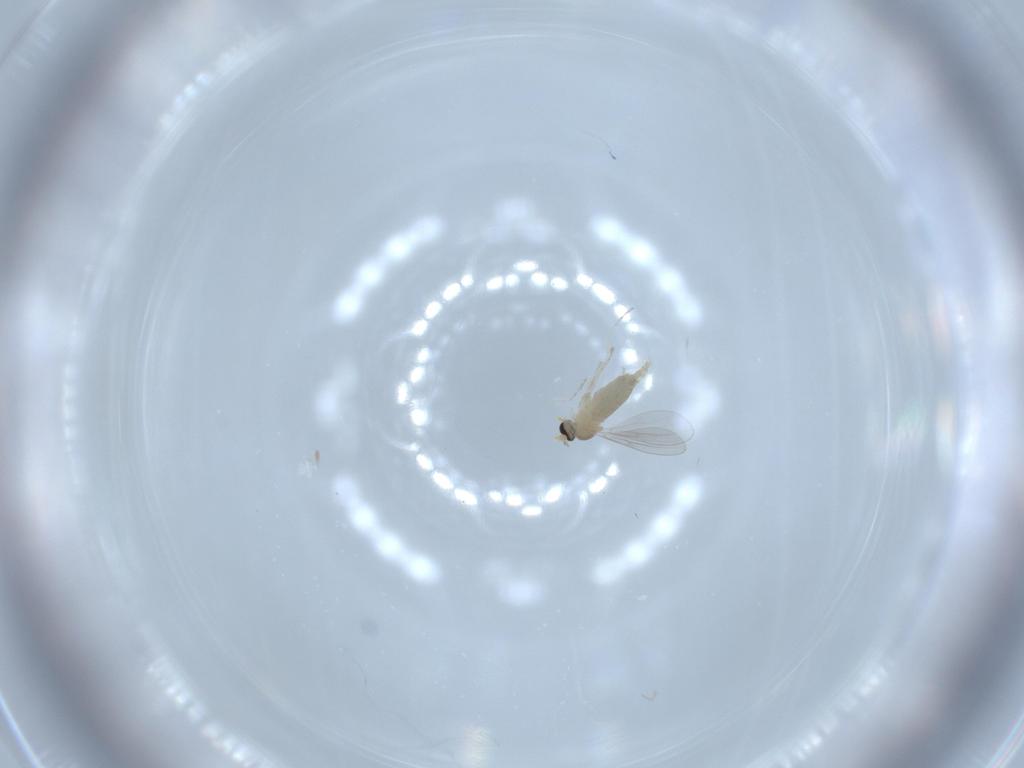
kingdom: Animalia
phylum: Arthropoda
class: Insecta
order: Diptera
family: Cecidomyiidae
